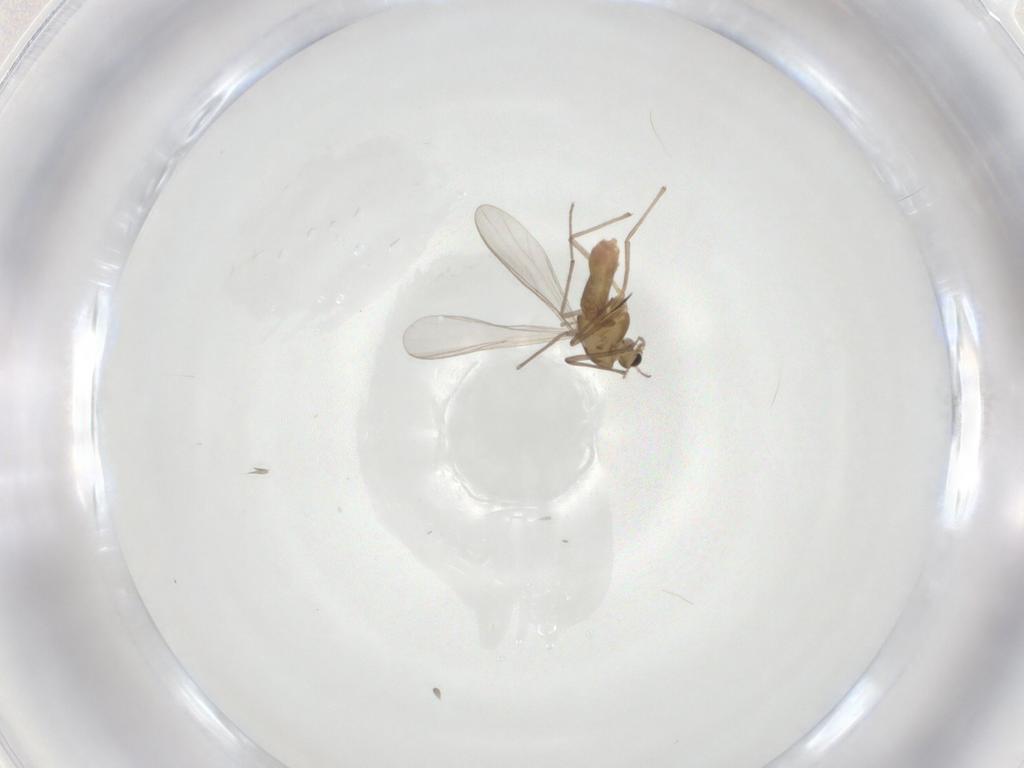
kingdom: Animalia
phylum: Arthropoda
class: Insecta
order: Diptera
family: Chironomidae
